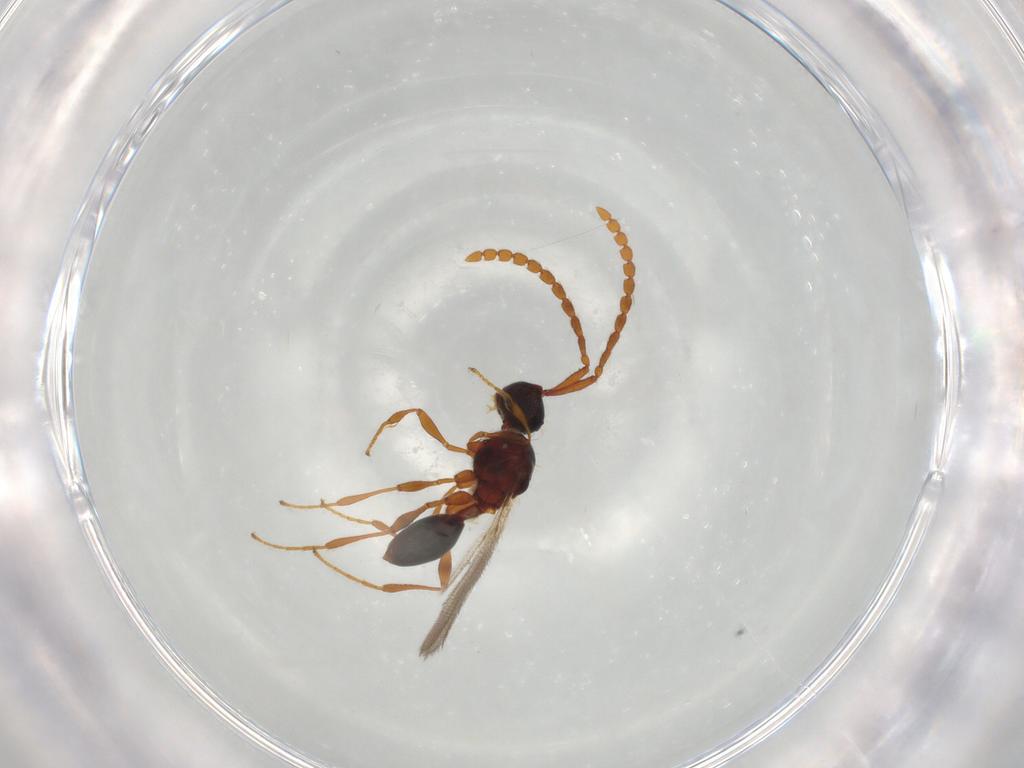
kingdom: Animalia
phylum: Arthropoda
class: Insecta
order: Hymenoptera
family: Diapriidae
